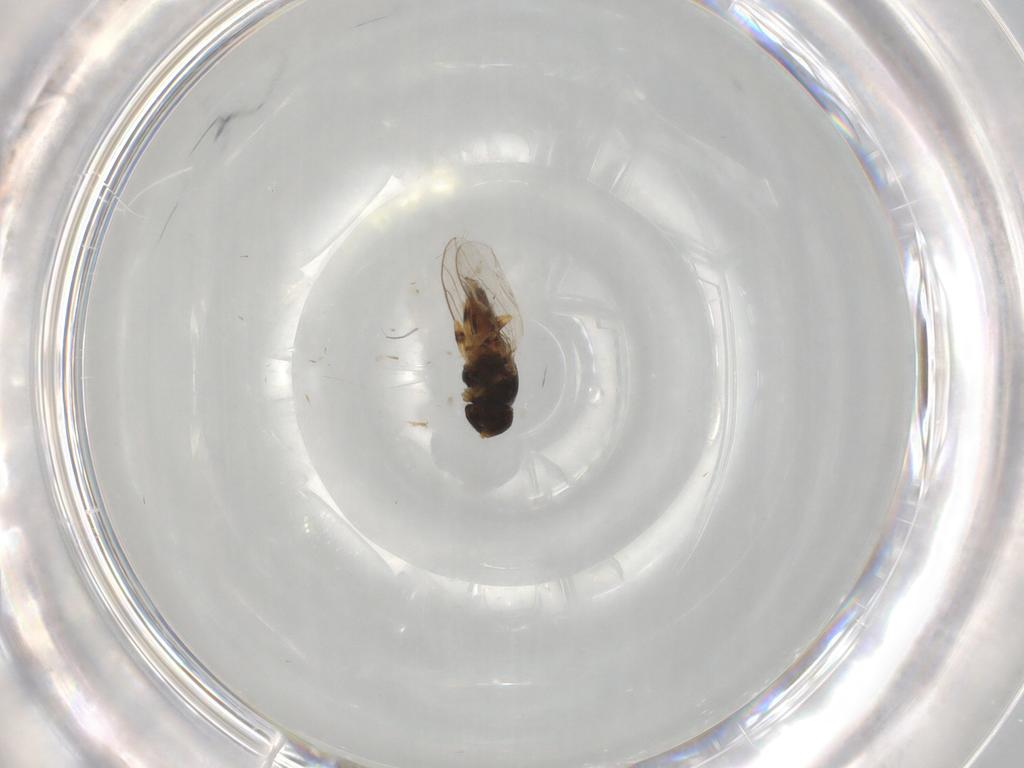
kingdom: Animalia
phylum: Arthropoda
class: Insecta
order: Diptera
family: Chloropidae
